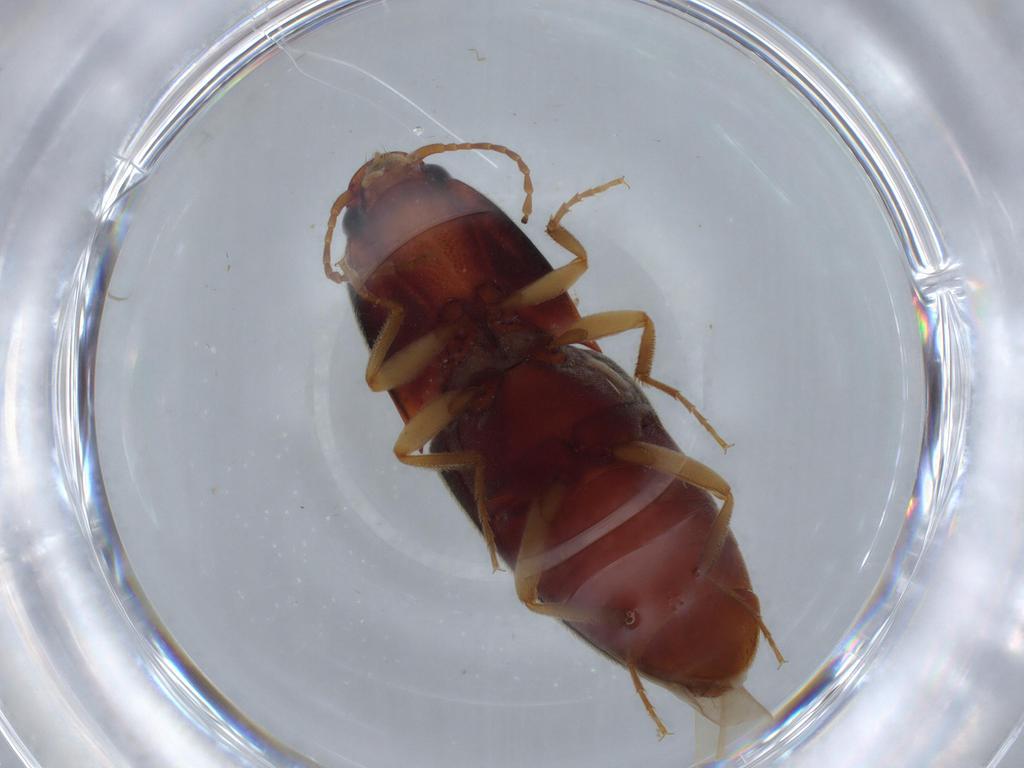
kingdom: Animalia
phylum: Arthropoda
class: Insecta
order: Coleoptera
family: Elateridae
